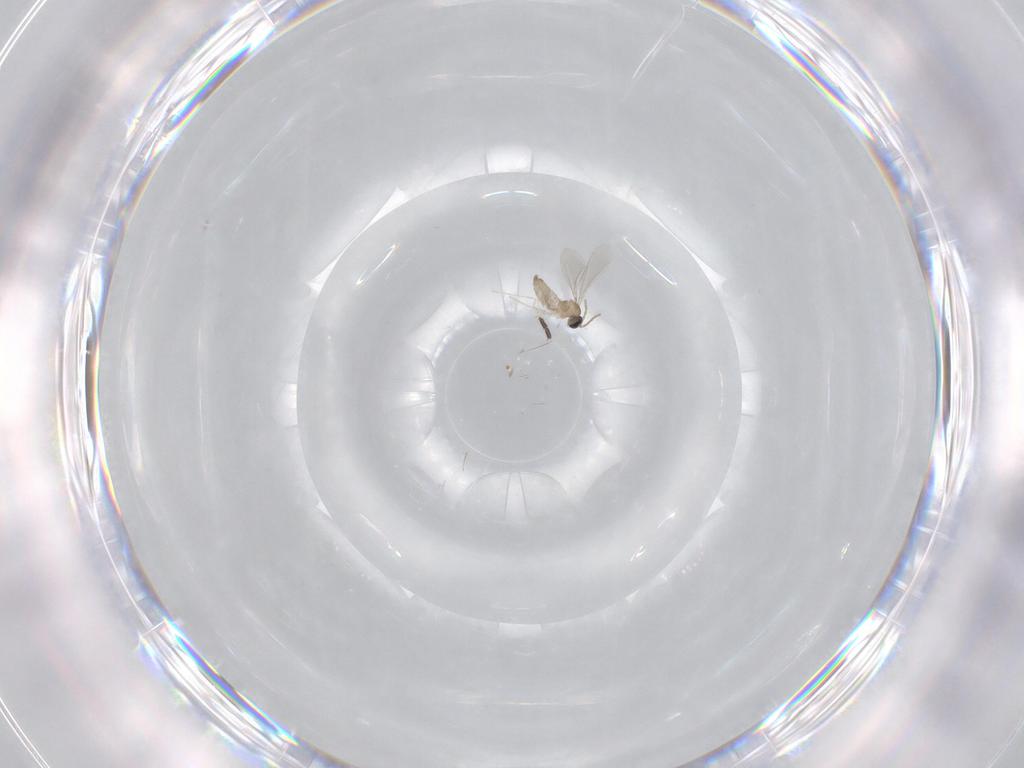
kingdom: Animalia
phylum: Arthropoda
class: Insecta
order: Diptera
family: Cecidomyiidae
